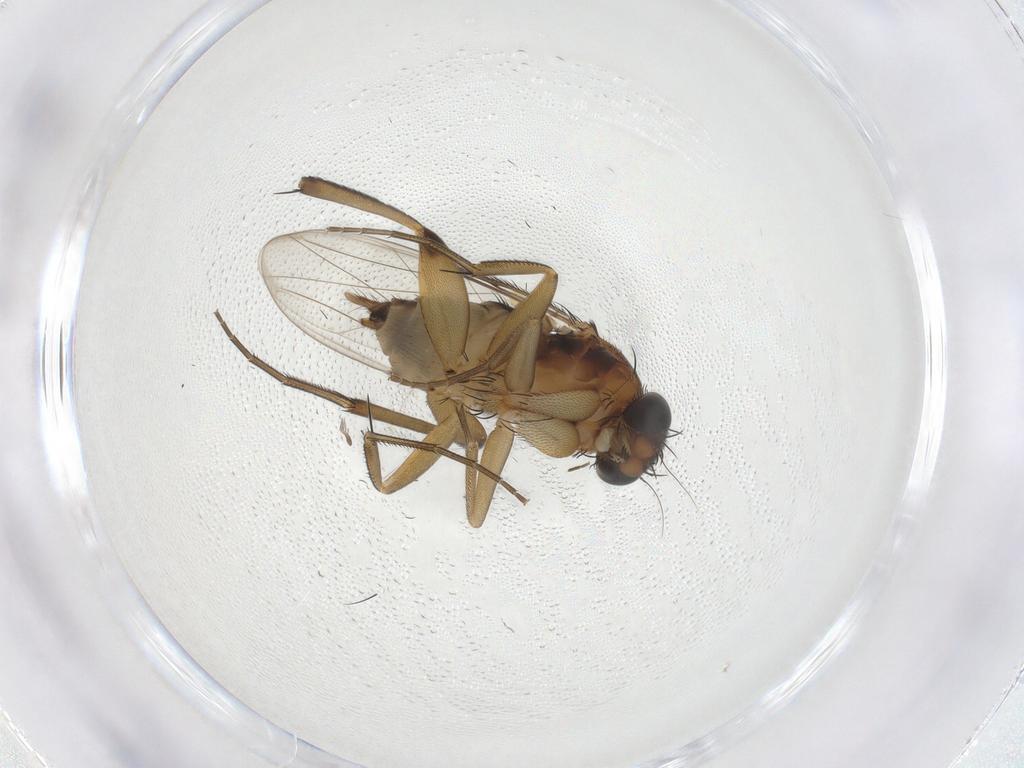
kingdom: Animalia
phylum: Arthropoda
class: Insecta
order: Diptera
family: Phoridae
